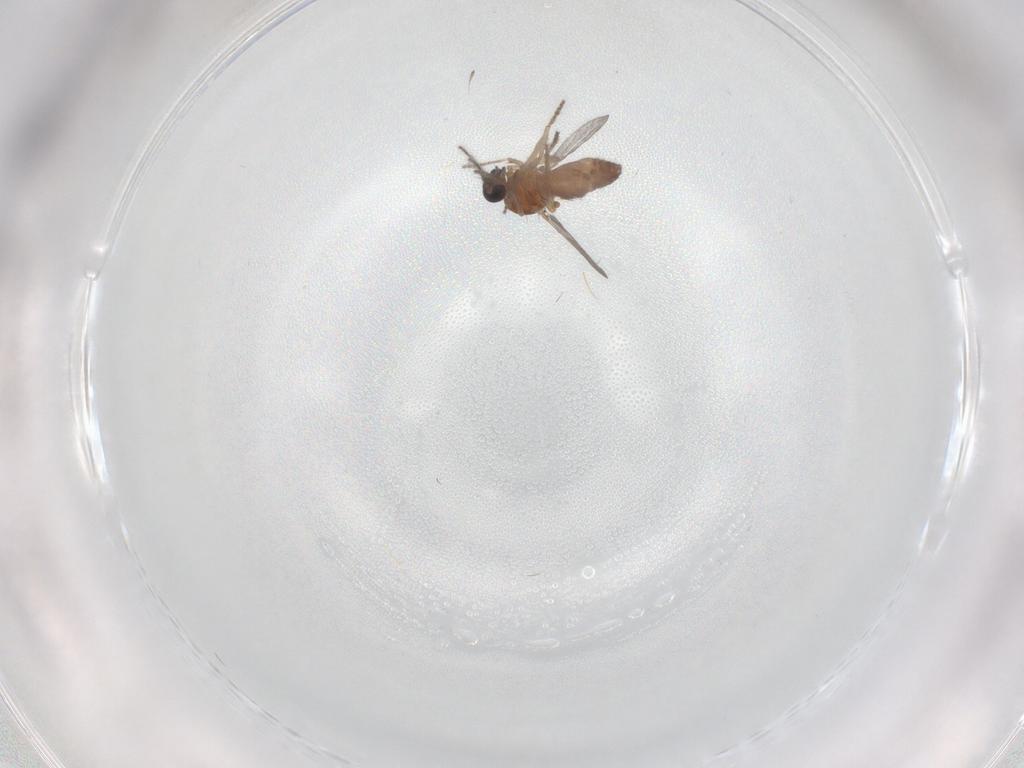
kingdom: Animalia
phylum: Arthropoda
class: Insecta
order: Diptera
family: Ceratopogonidae
